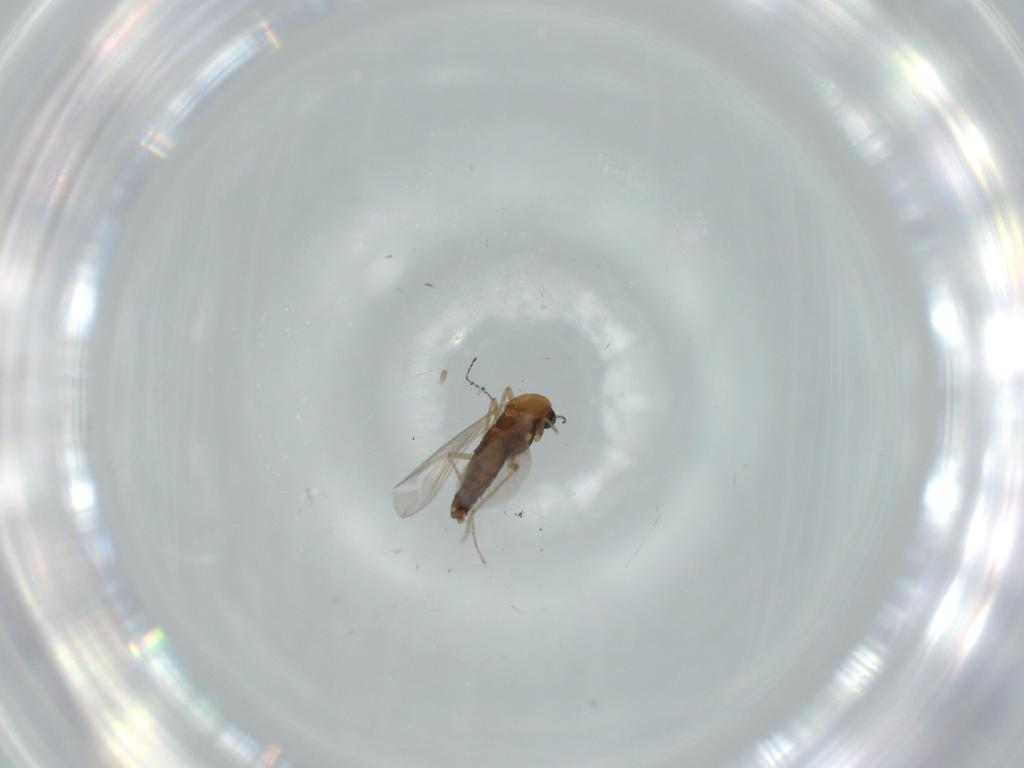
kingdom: Animalia
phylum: Arthropoda
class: Insecta
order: Diptera
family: Chironomidae
